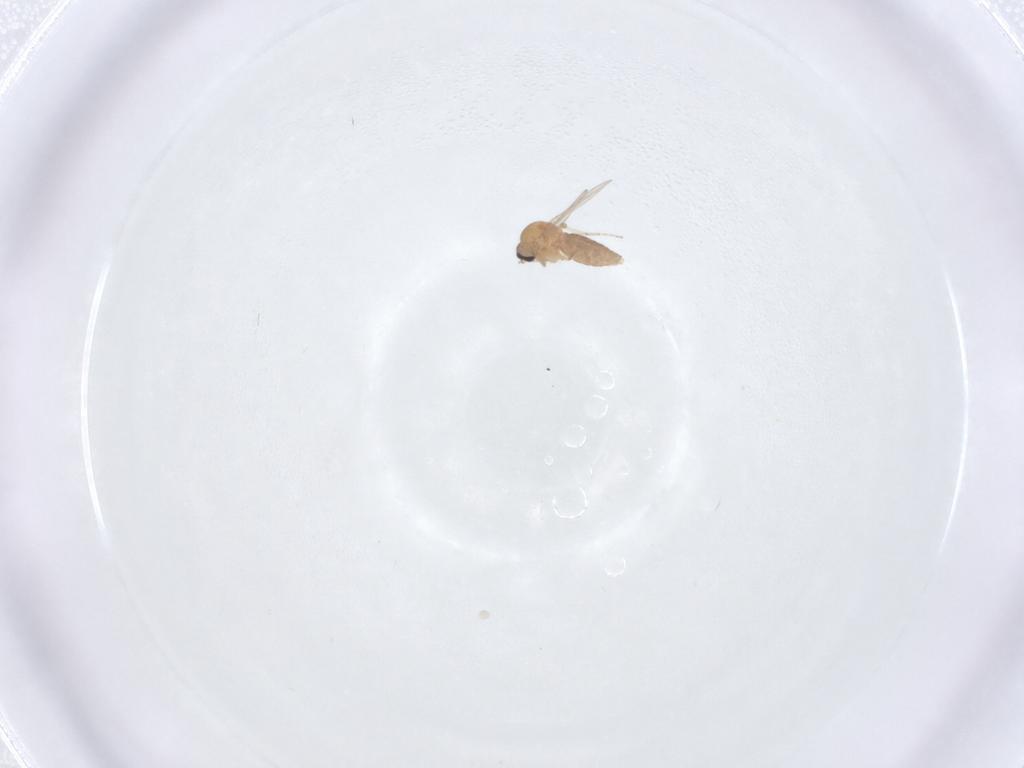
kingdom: Animalia
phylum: Arthropoda
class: Insecta
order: Diptera
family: Ceratopogonidae
